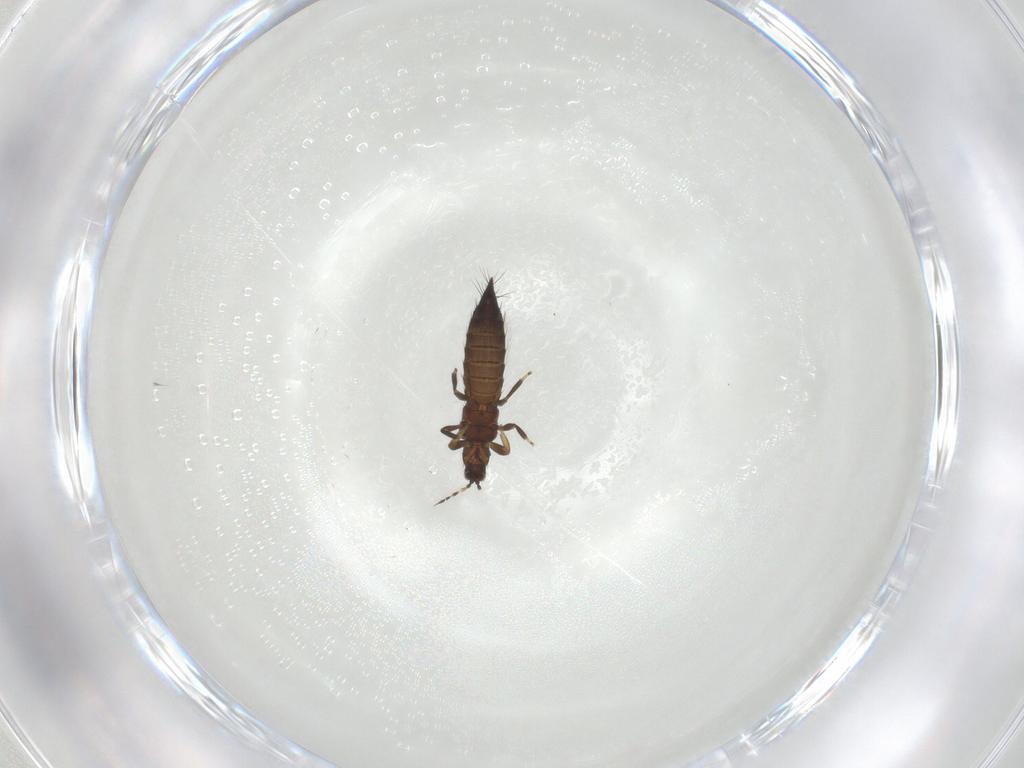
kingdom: Animalia
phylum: Arthropoda
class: Insecta
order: Thysanoptera
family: Thripidae
